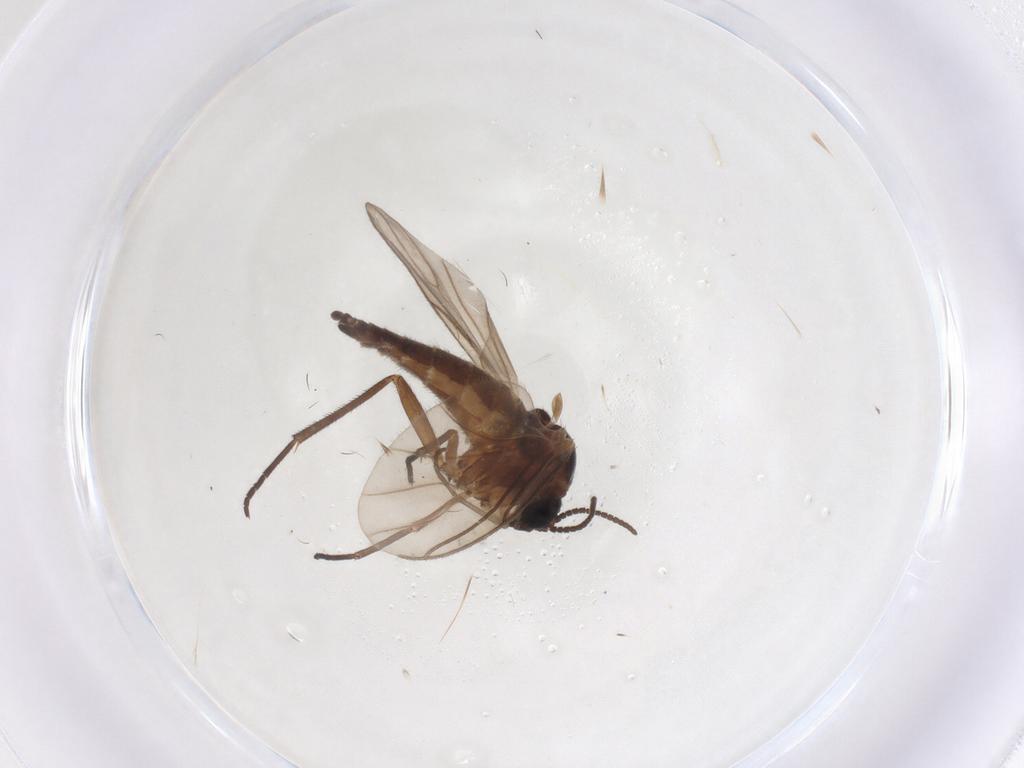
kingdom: Animalia
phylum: Arthropoda
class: Insecta
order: Diptera
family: Sciaridae
